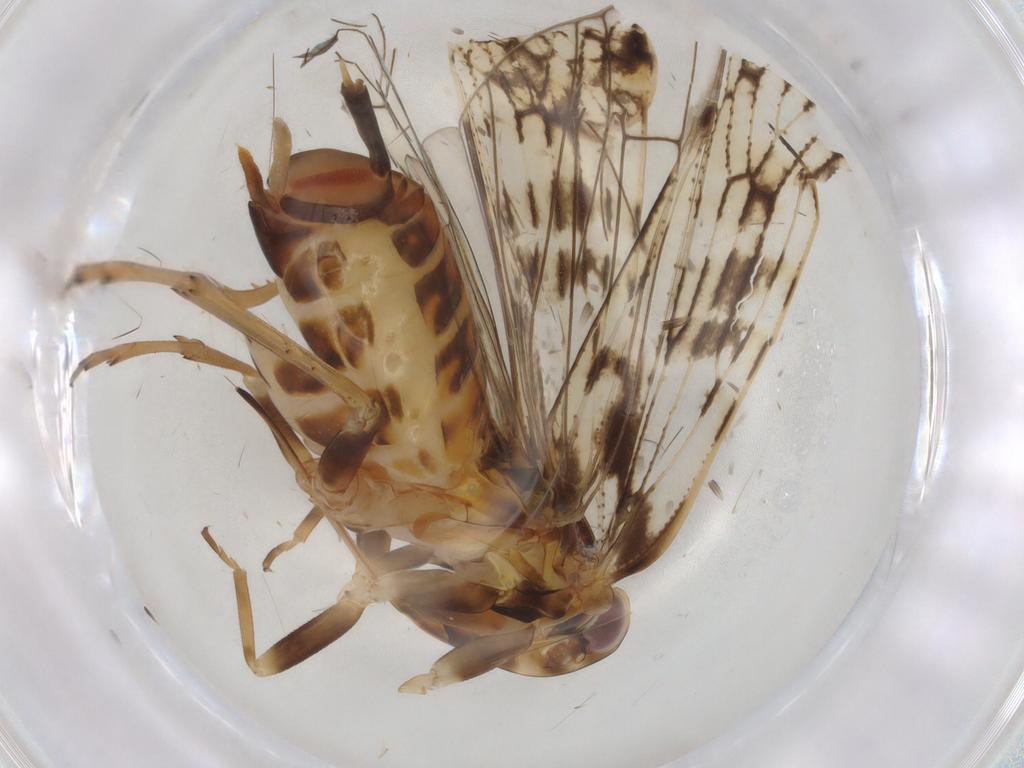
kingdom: Animalia
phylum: Arthropoda
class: Insecta
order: Hemiptera
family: Cixiidae
